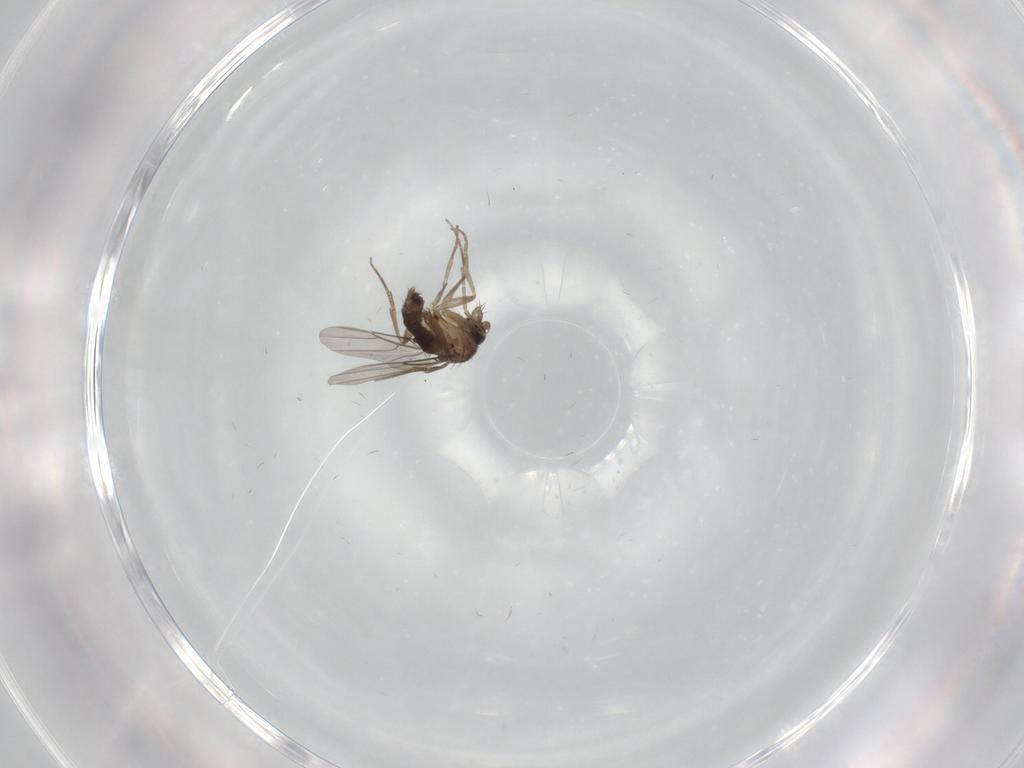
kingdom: Animalia
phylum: Arthropoda
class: Insecta
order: Diptera
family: Phoridae
